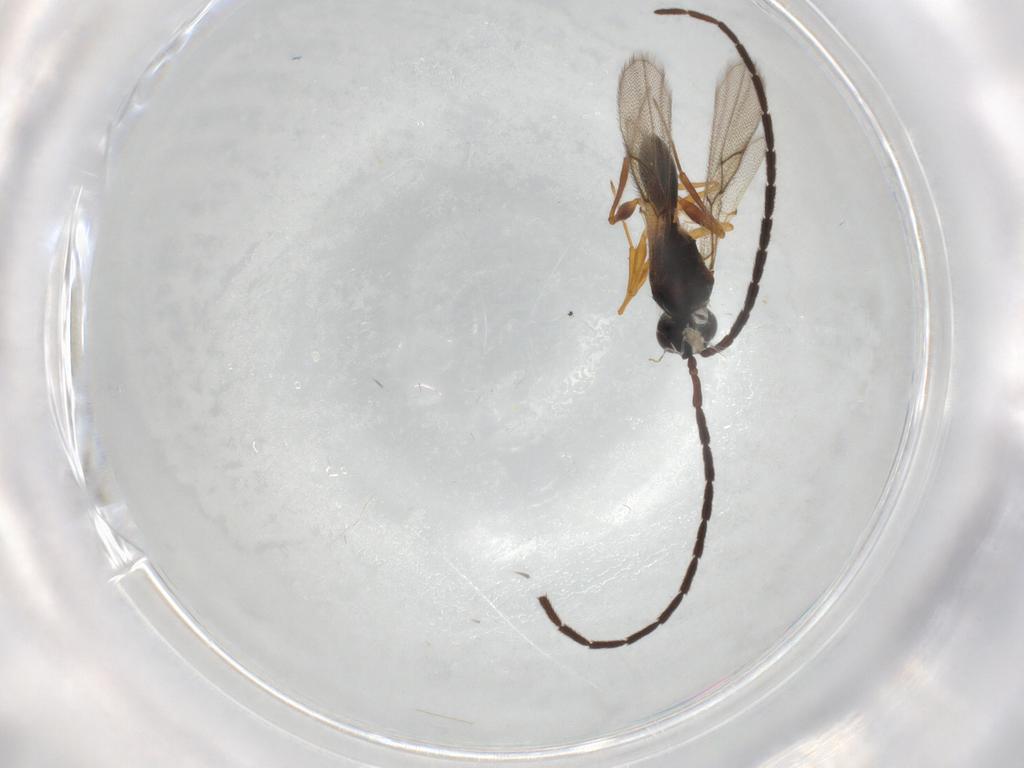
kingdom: Animalia
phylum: Arthropoda
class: Insecta
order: Hymenoptera
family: Figitidae
